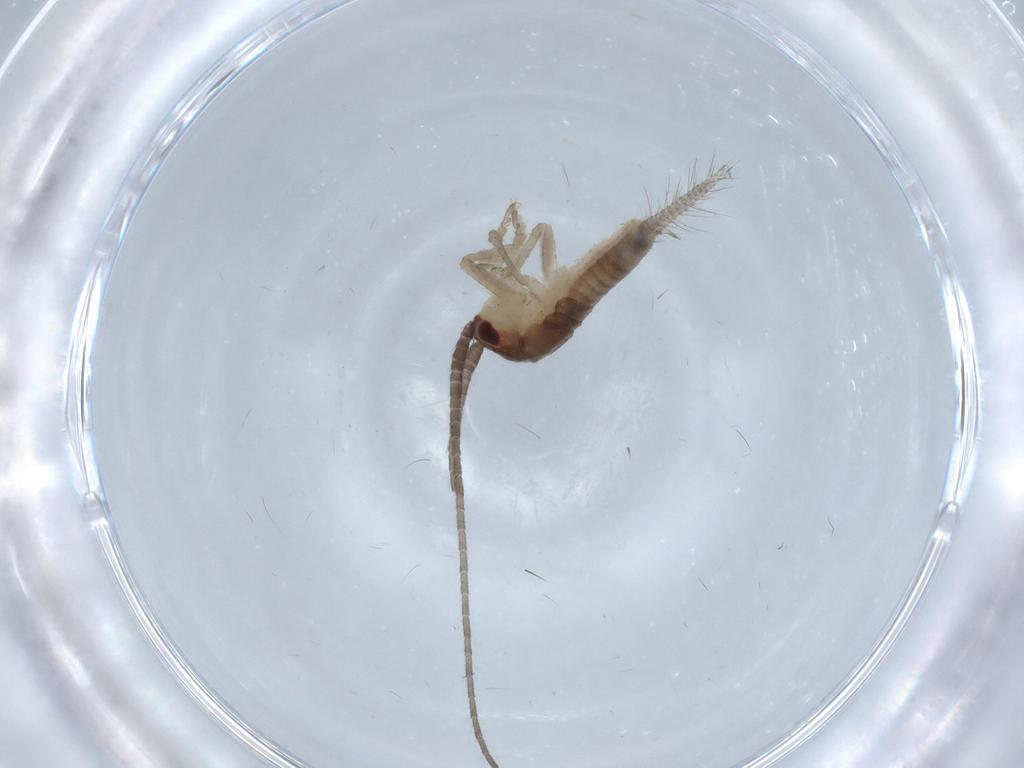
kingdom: Animalia
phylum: Arthropoda
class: Insecta
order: Orthoptera
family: Gryllidae
